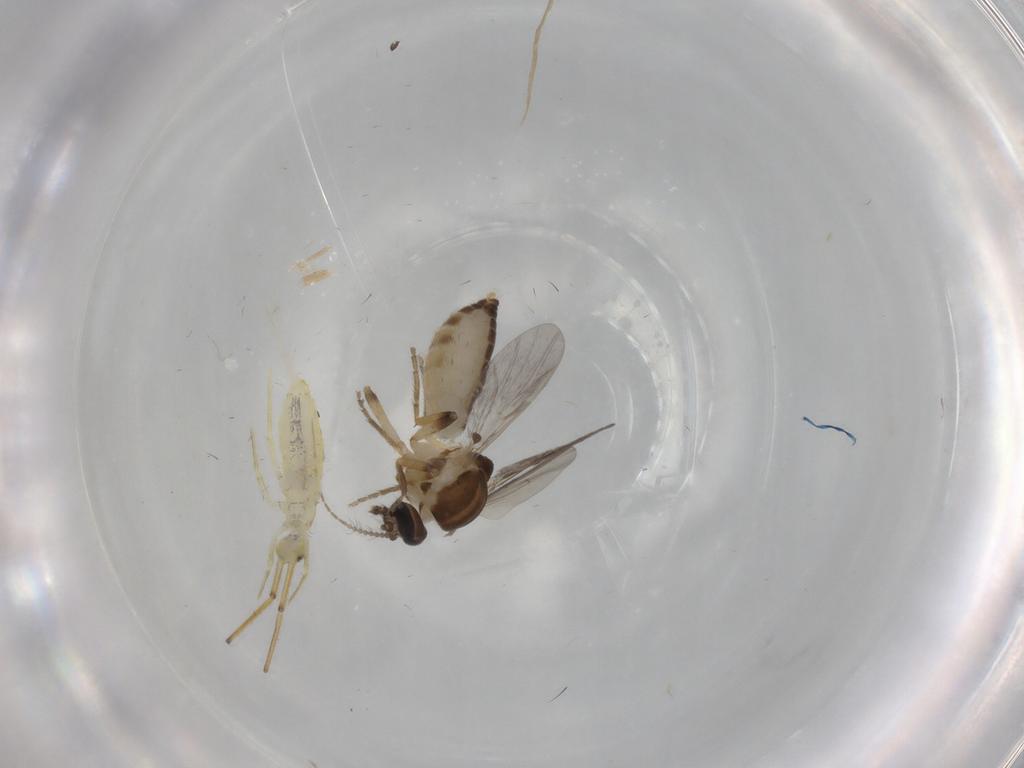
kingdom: Animalia
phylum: Arthropoda
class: Insecta
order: Diptera
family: Ceratopogonidae
